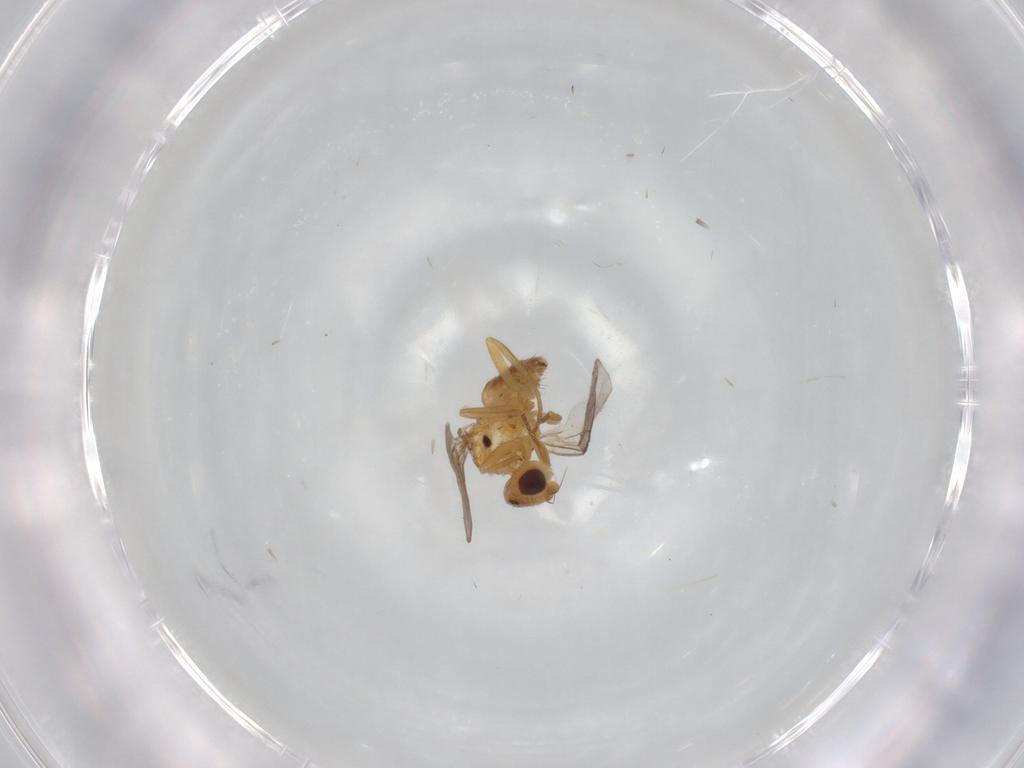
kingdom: Animalia
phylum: Arthropoda
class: Insecta
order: Diptera
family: Chloropidae
